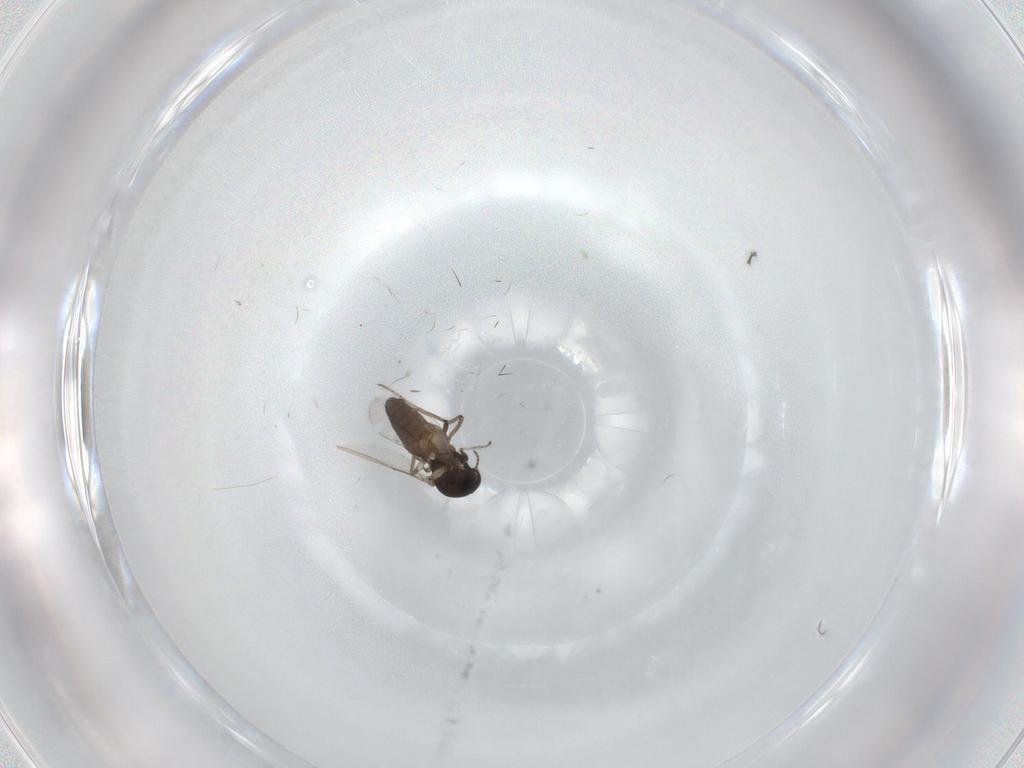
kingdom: Animalia
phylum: Arthropoda
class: Insecta
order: Diptera
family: Ceratopogonidae
